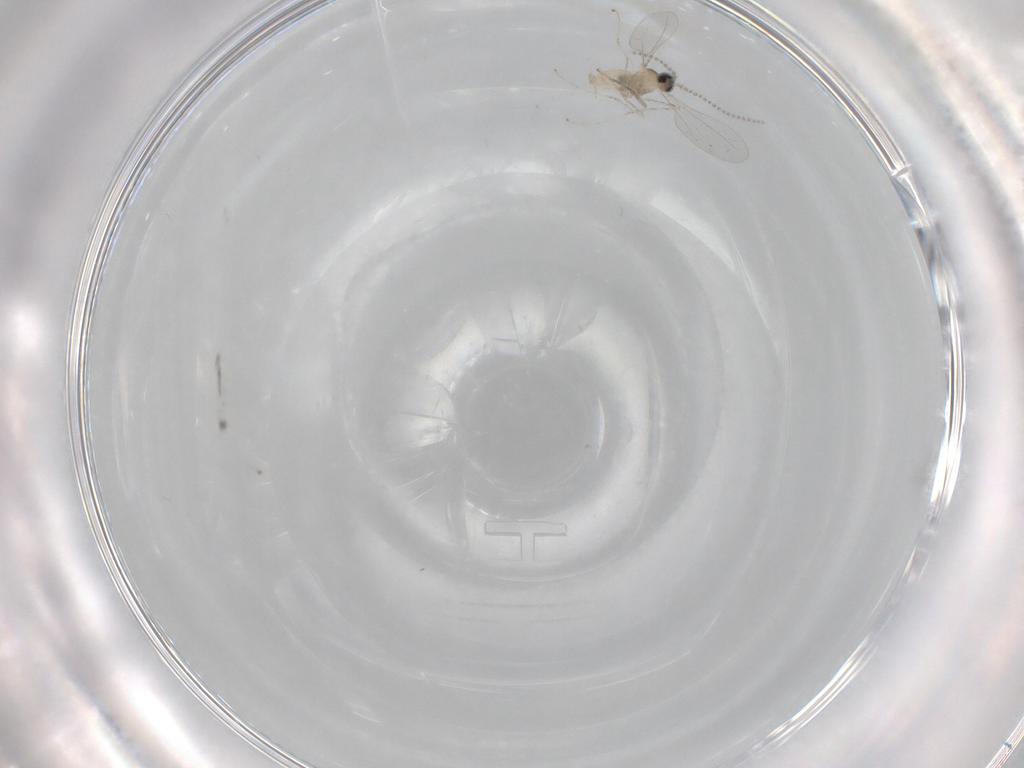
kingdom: Animalia
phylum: Arthropoda
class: Insecta
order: Diptera
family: Cecidomyiidae
